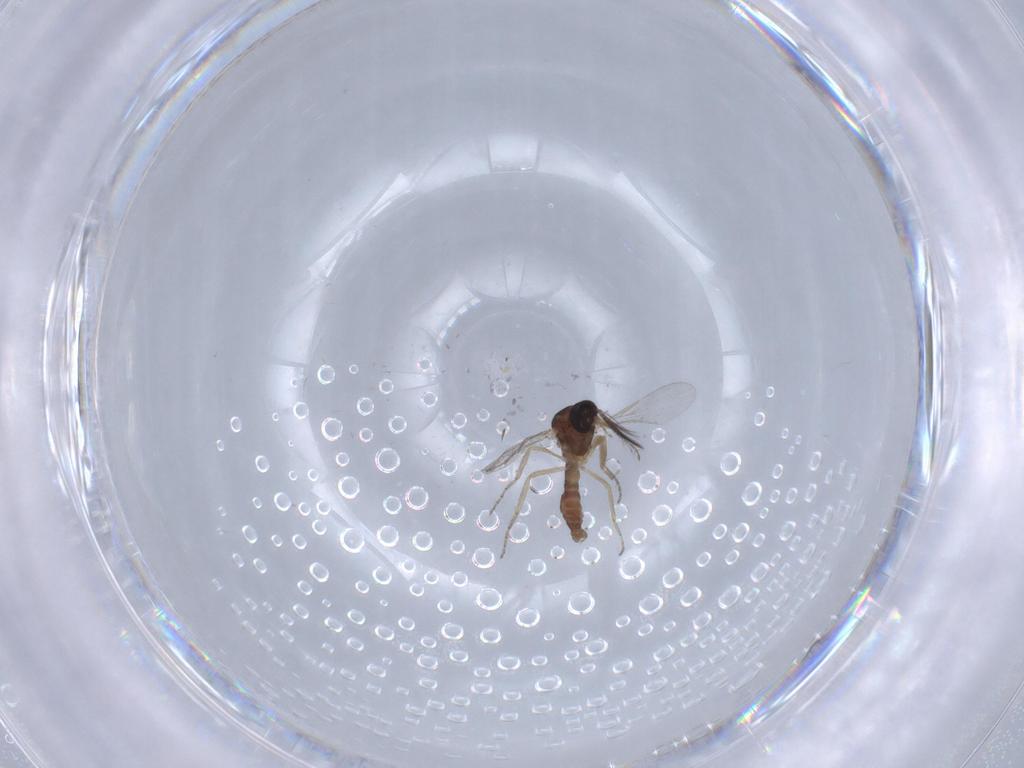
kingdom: Animalia
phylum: Arthropoda
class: Insecta
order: Diptera
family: Ceratopogonidae
